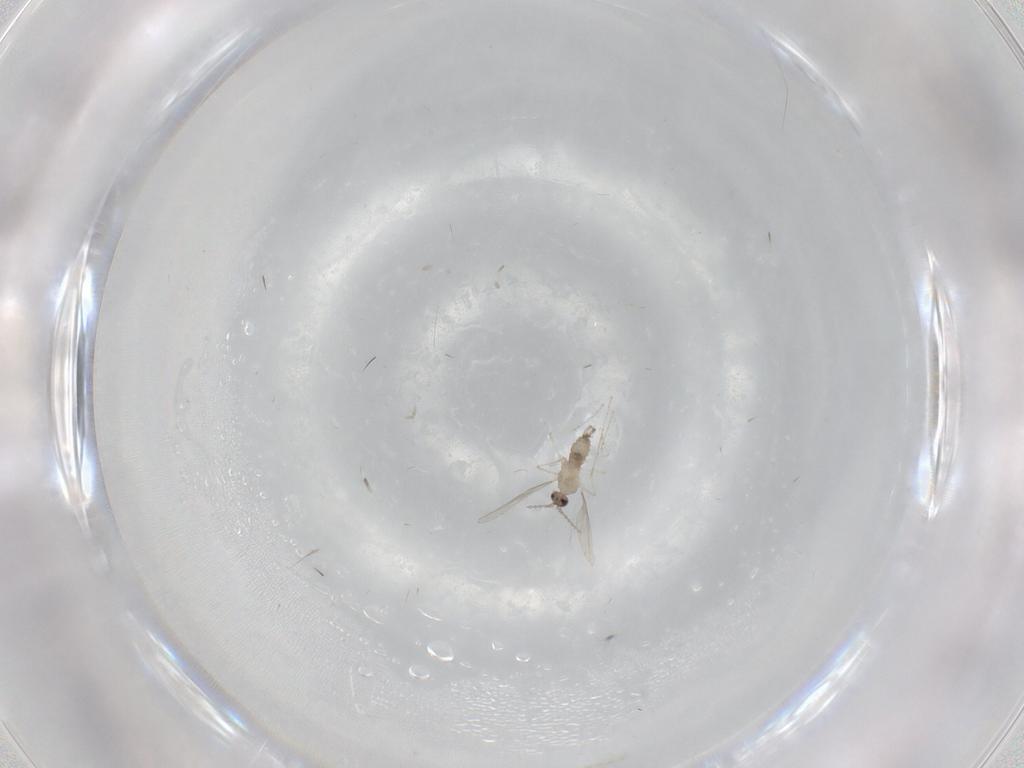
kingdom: Animalia
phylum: Arthropoda
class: Insecta
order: Diptera
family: Cecidomyiidae
